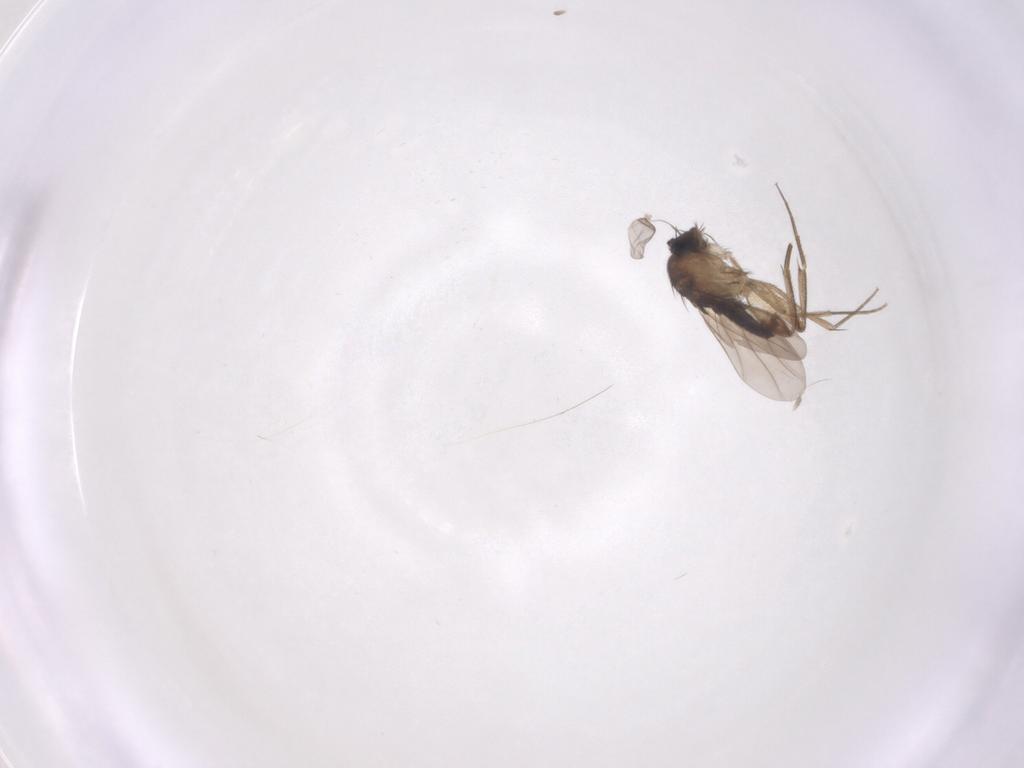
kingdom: Animalia
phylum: Arthropoda
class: Insecta
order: Diptera
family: Phoridae
